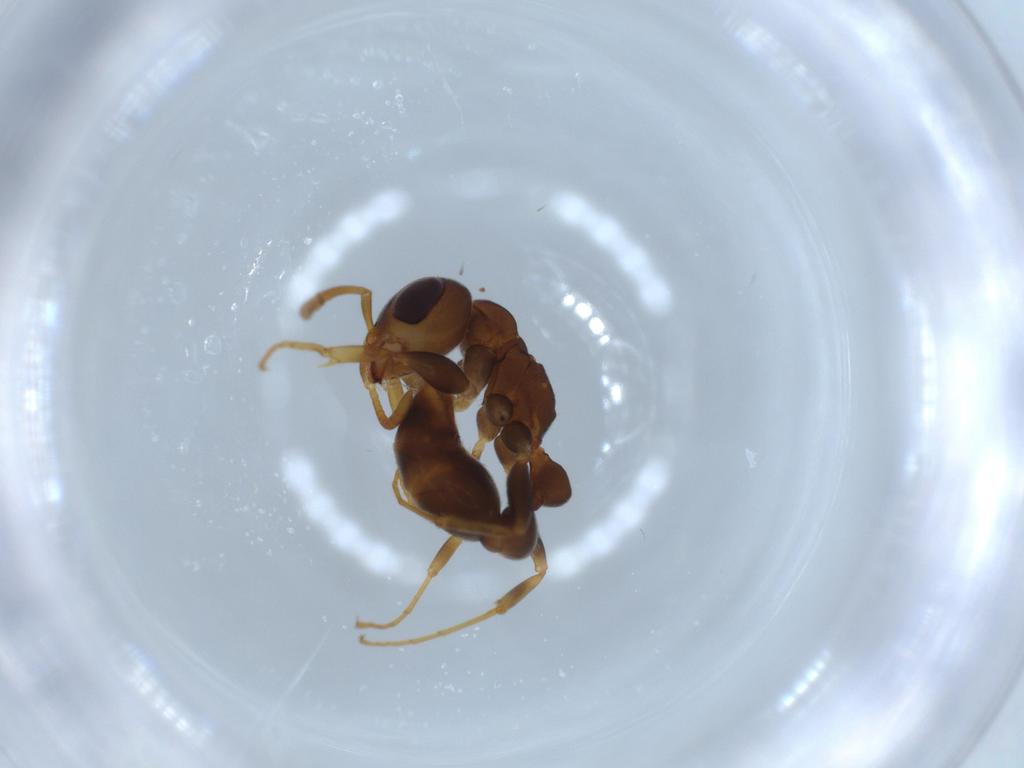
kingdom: Animalia
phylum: Arthropoda
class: Insecta
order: Hymenoptera
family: Formicidae
